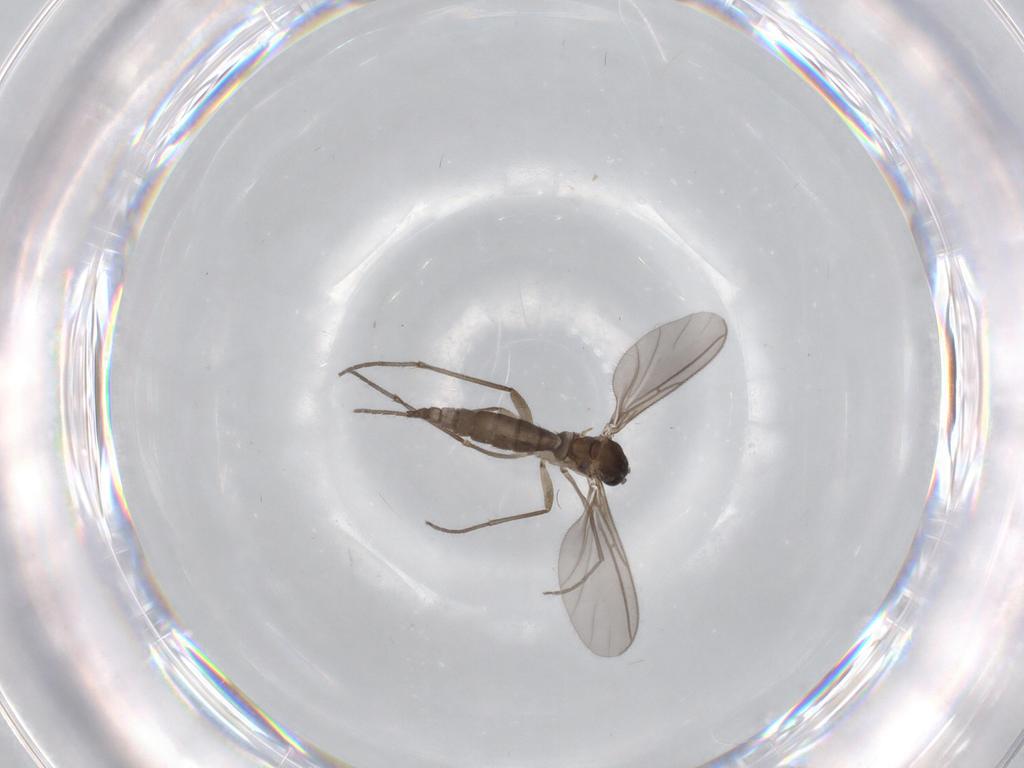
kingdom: Animalia
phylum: Arthropoda
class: Insecta
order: Diptera
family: Sciaridae
